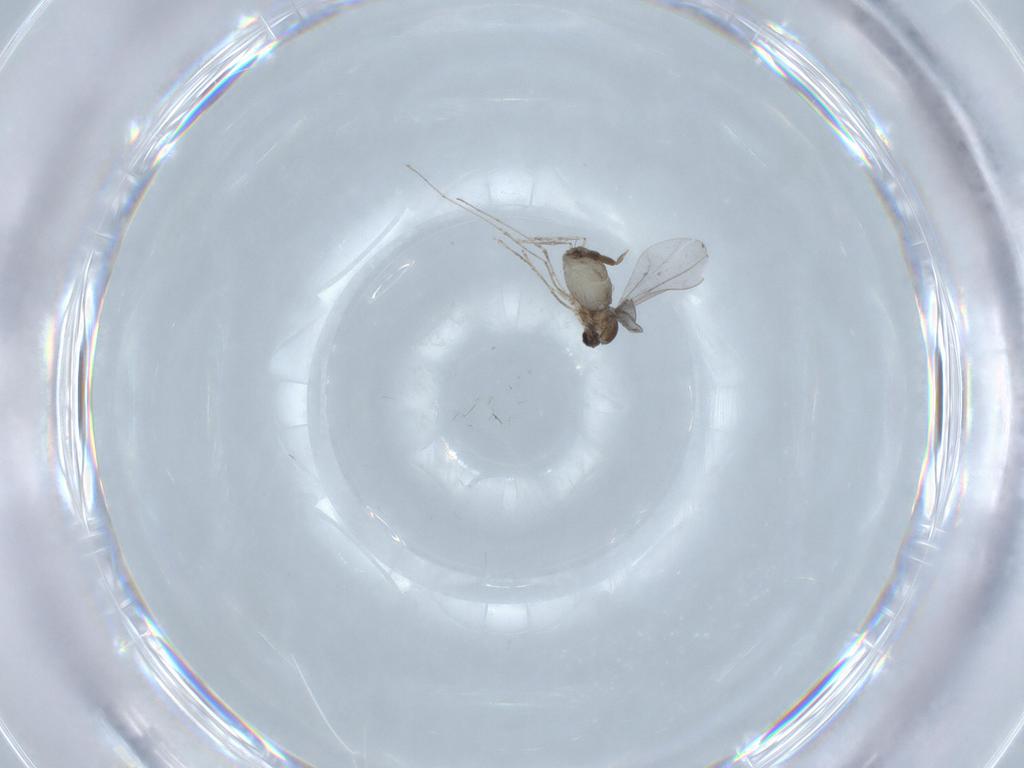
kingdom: Animalia
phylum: Arthropoda
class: Insecta
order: Diptera
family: Cecidomyiidae
